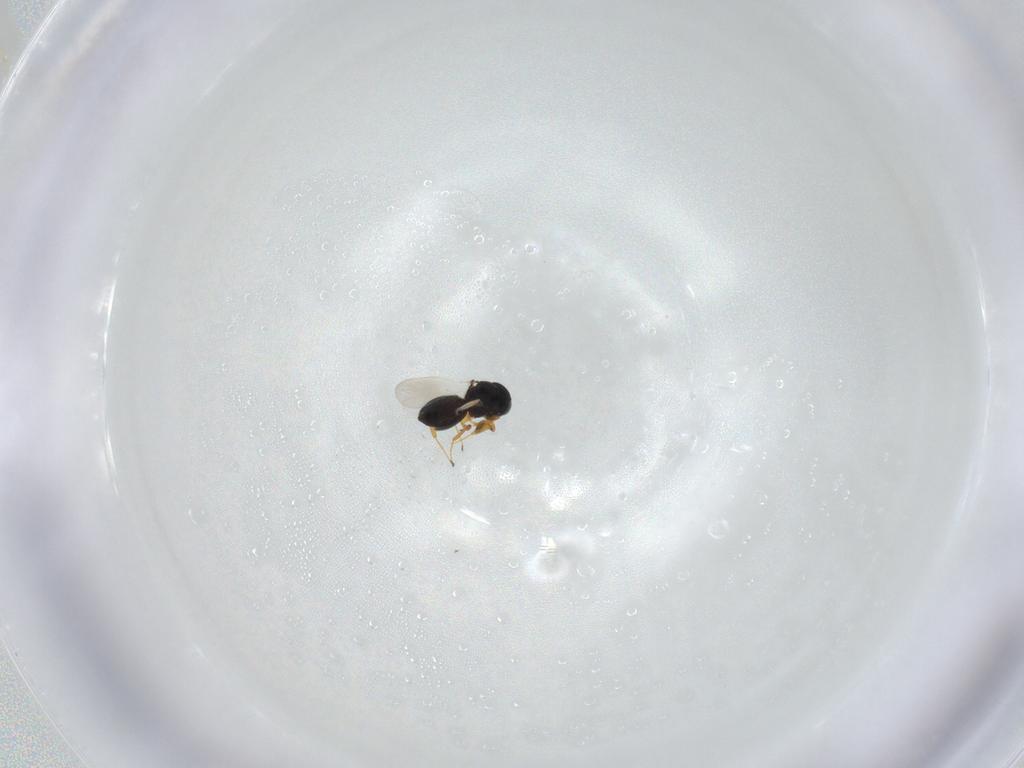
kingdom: Animalia
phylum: Arthropoda
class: Insecta
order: Hymenoptera
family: Platygastridae
